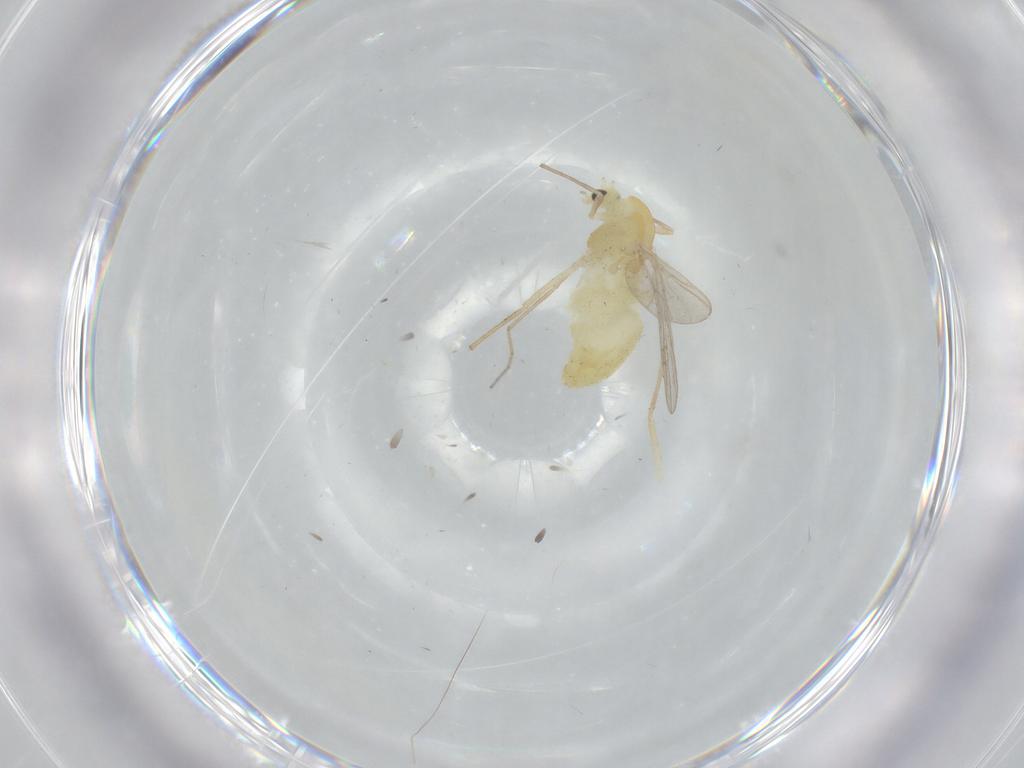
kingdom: Animalia
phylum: Arthropoda
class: Insecta
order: Diptera
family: Chironomidae
